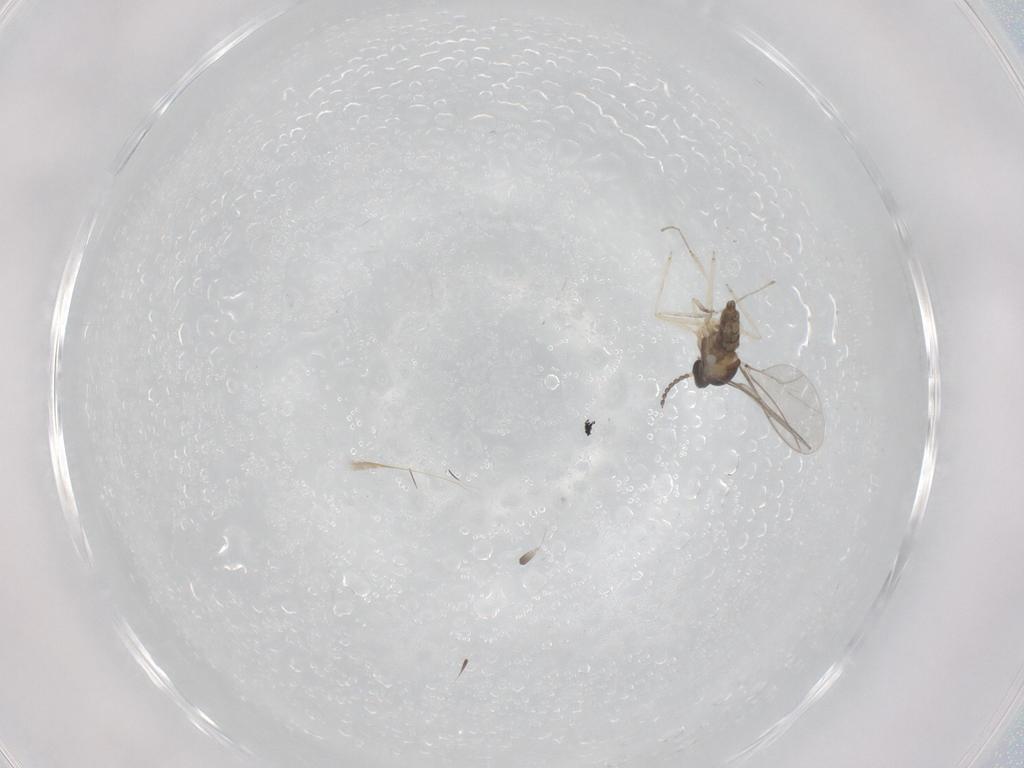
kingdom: Animalia
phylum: Arthropoda
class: Insecta
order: Diptera
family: Cecidomyiidae
